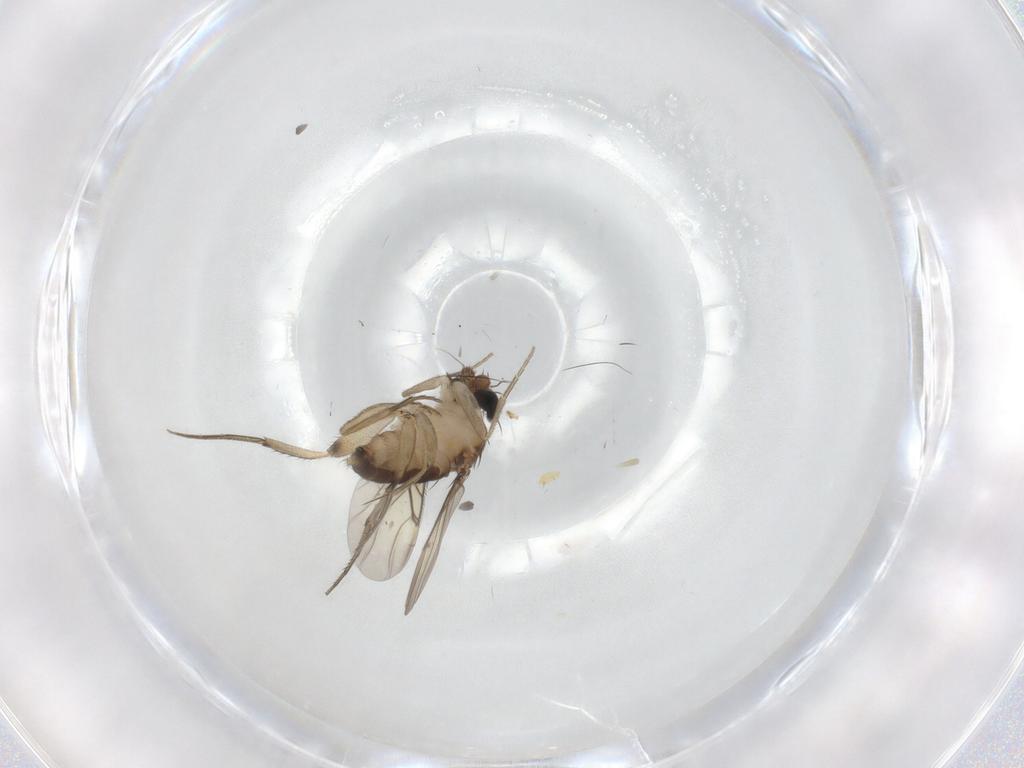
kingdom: Animalia
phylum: Arthropoda
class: Insecta
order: Diptera
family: Phoridae
